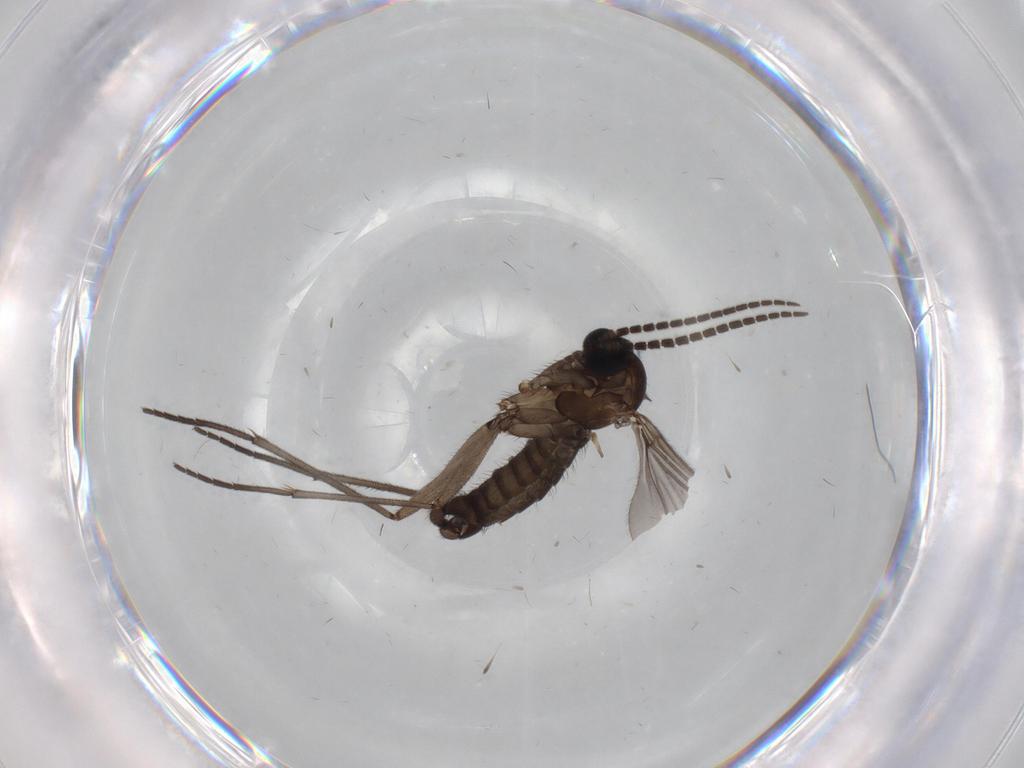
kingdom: Animalia
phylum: Arthropoda
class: Insecta
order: Diptera
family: Sciaridae
